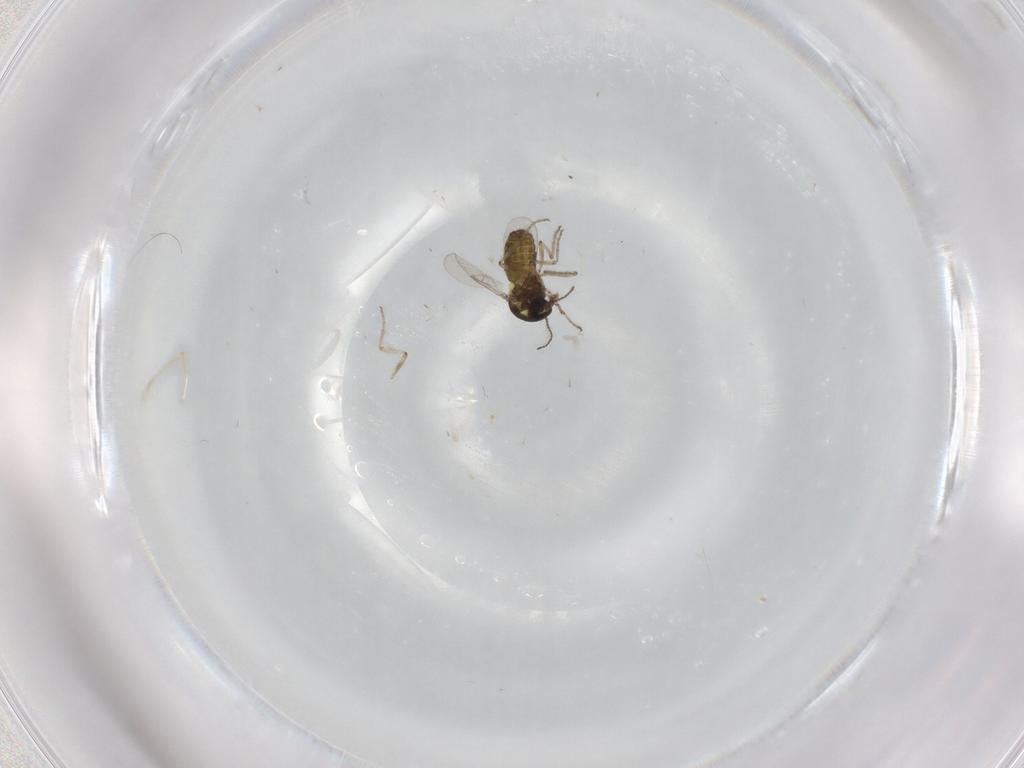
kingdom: Animalia
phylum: Arthropoda
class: Insecta
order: Diptera
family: Ceratopogonidae
